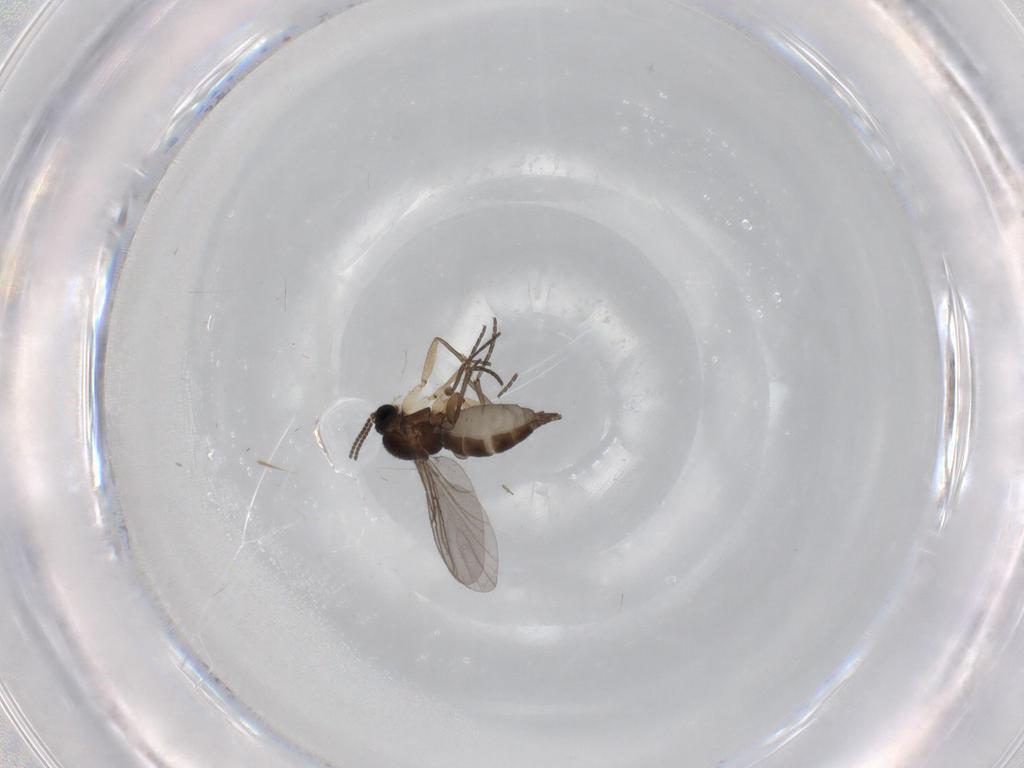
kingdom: Animalia
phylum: Arthropoda
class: Insecta
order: Diptera
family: Sciaridae
